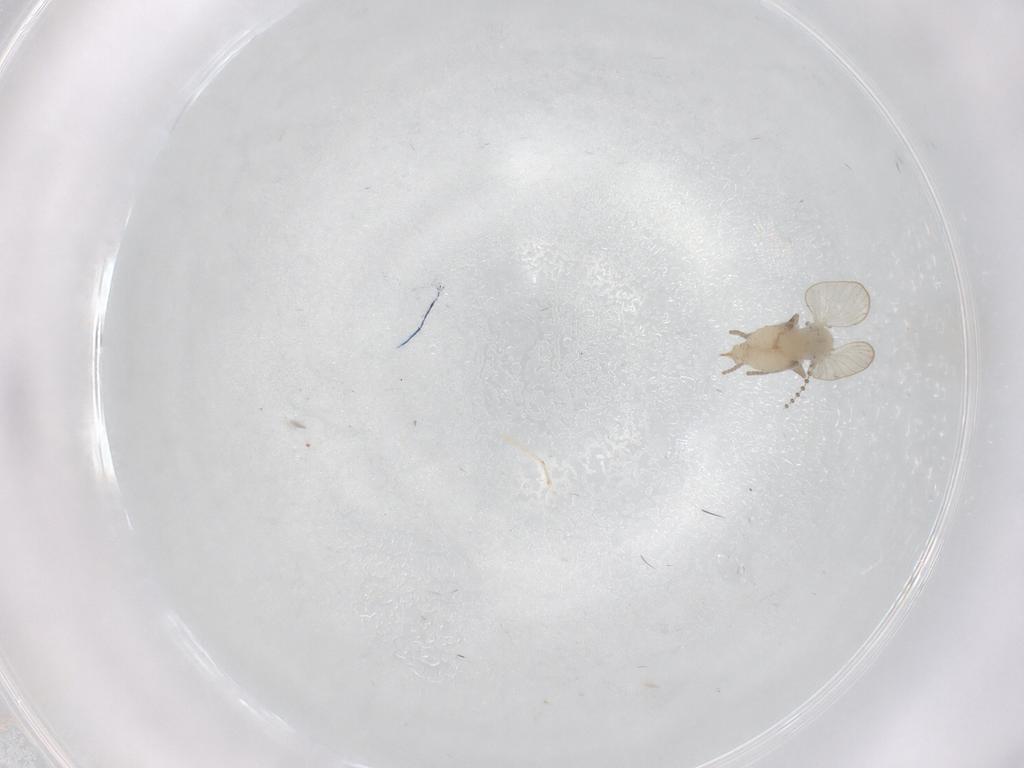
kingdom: Animalia
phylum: Arthropoda
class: Insecta
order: Diptera
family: Psychodidae
